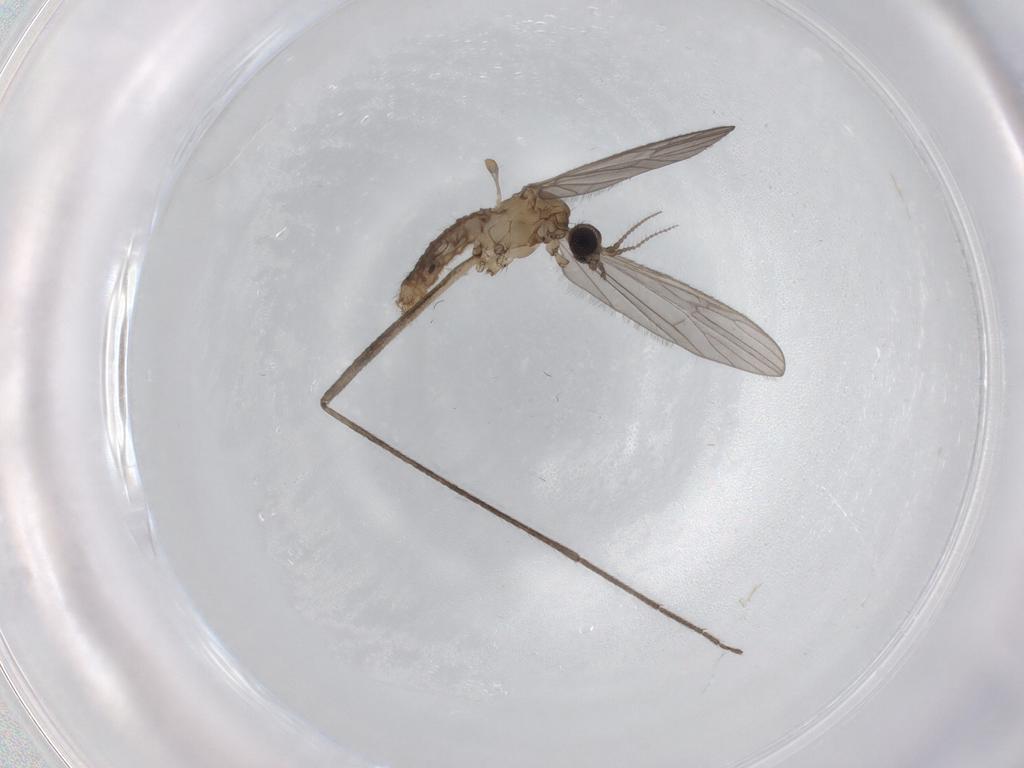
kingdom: Animalia
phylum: Arthropoda
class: Insecta
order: Diptera
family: Limoniidae
